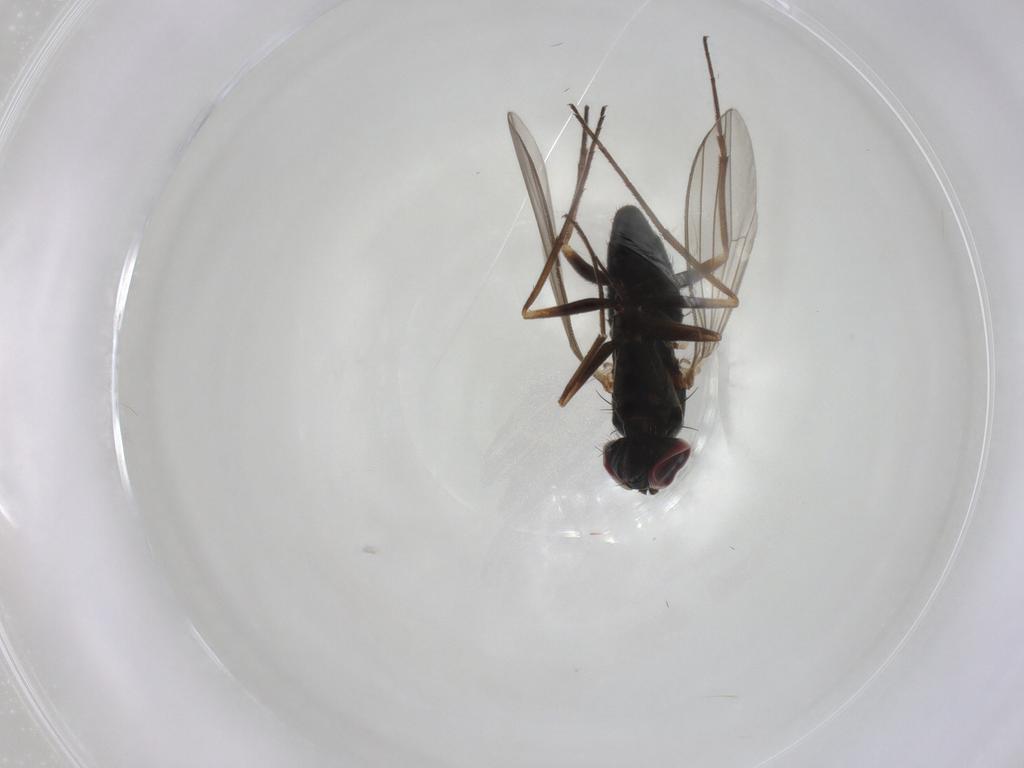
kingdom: Animalia
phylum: Arthropoda
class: Insecta
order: Diptera
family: Dolichopodidae
